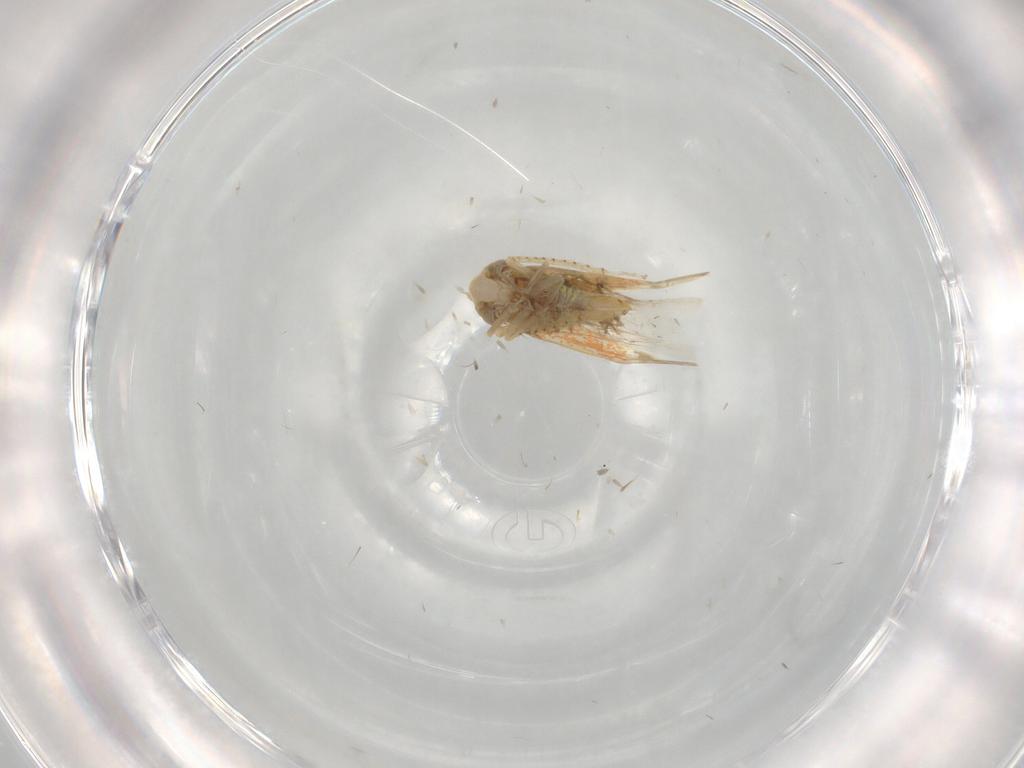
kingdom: Animalia
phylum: Arthropoda
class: Insecta
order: Hemiptera
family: Cicadellidae
